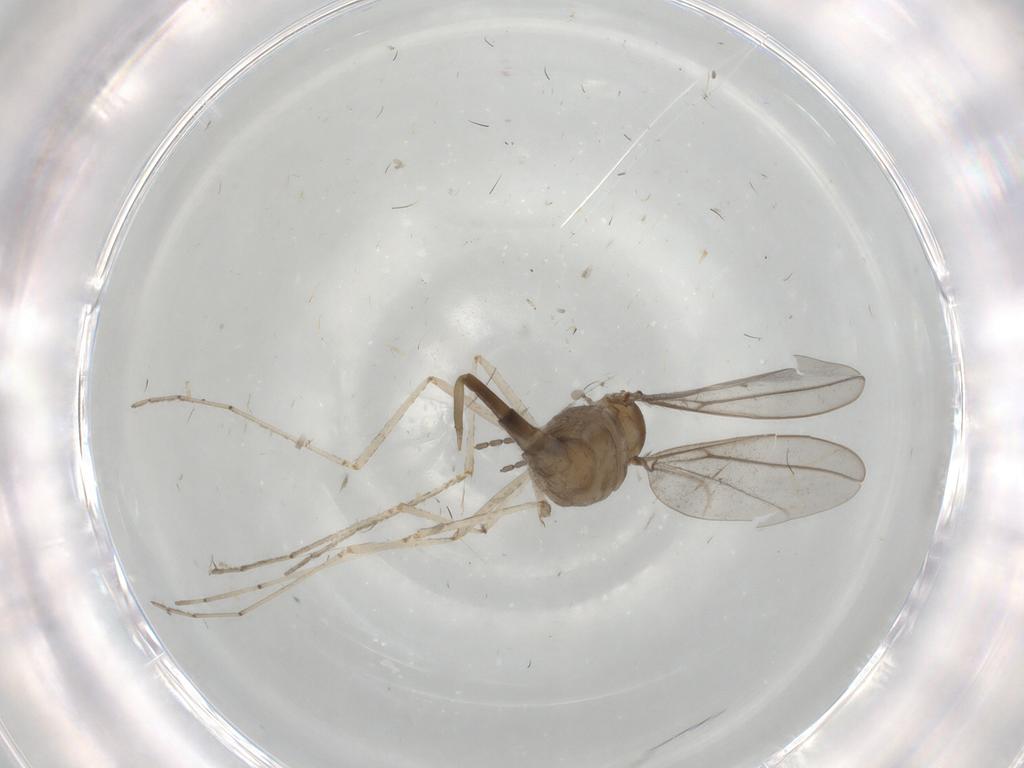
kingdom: Animalia
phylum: Arthropoda
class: Insecta
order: Diptera
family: Cecidomyiidae
